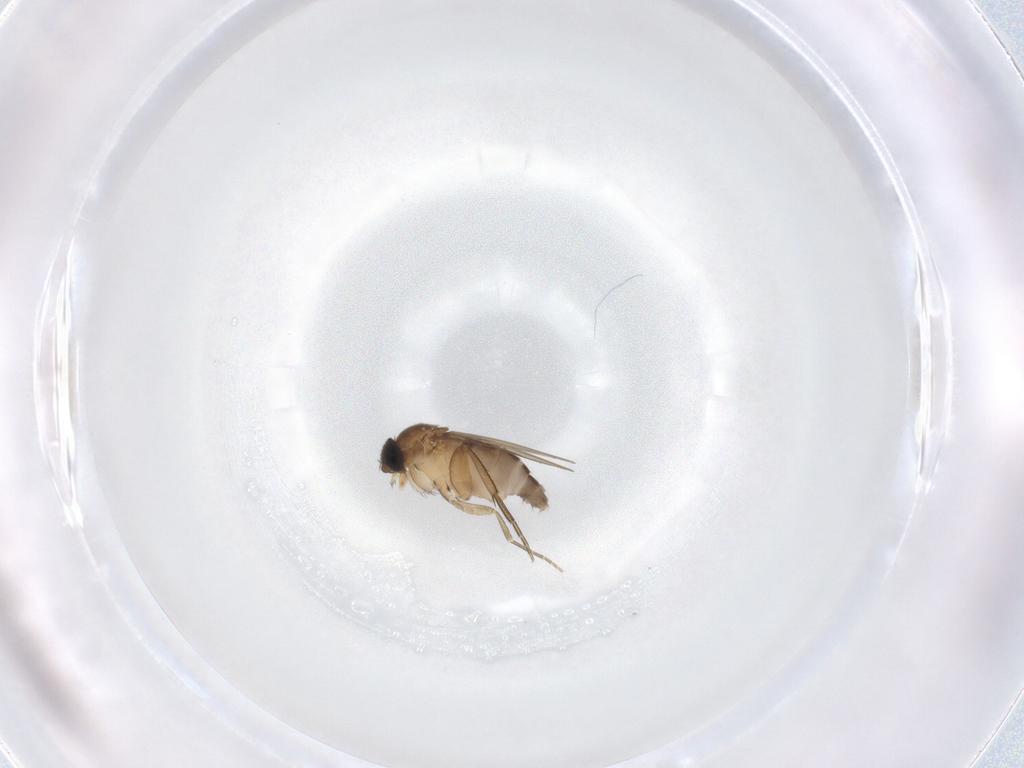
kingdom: Animalia
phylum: Arthropoda
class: Insecta
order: Diptera
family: Phoridae
